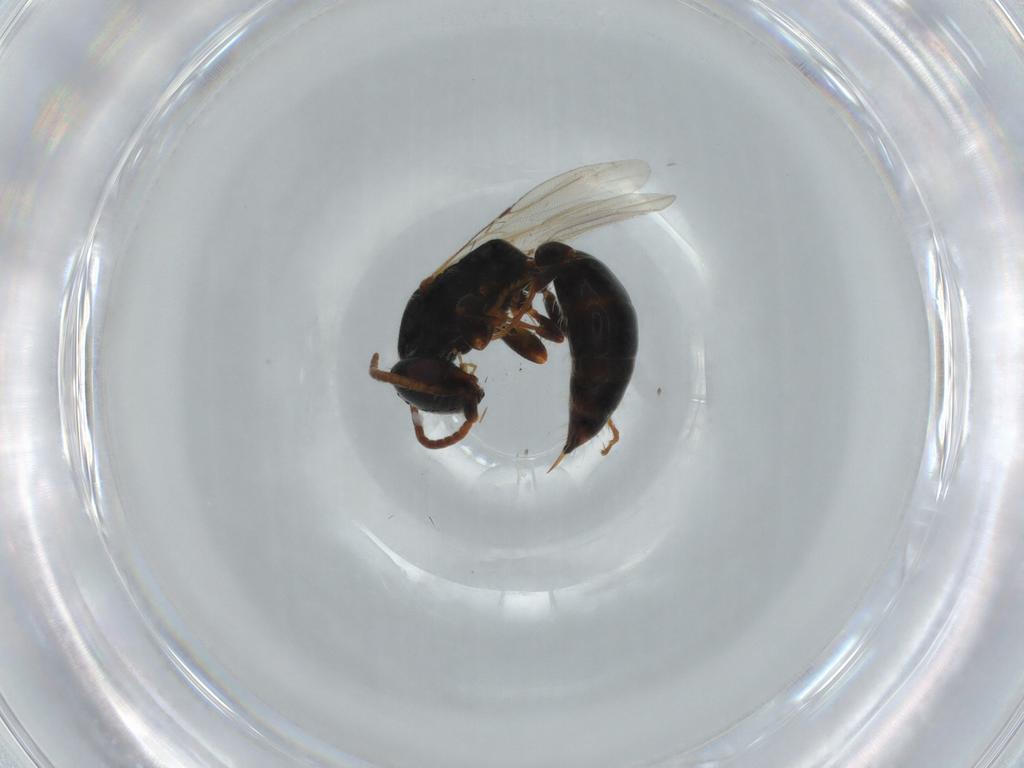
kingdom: Animalia
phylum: Arthropoda
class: Insecta
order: Hymenoptera
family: Bethylidae
